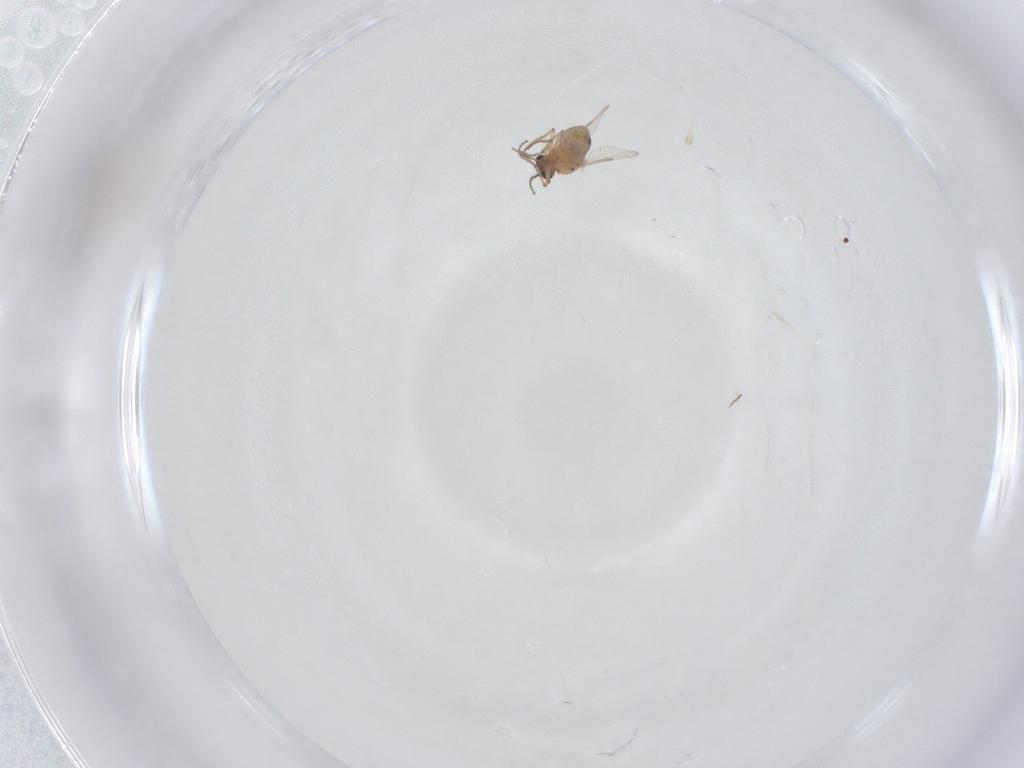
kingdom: Animalia
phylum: Arthropoda
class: Insecta
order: Diptera
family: Ceratopogonidae
